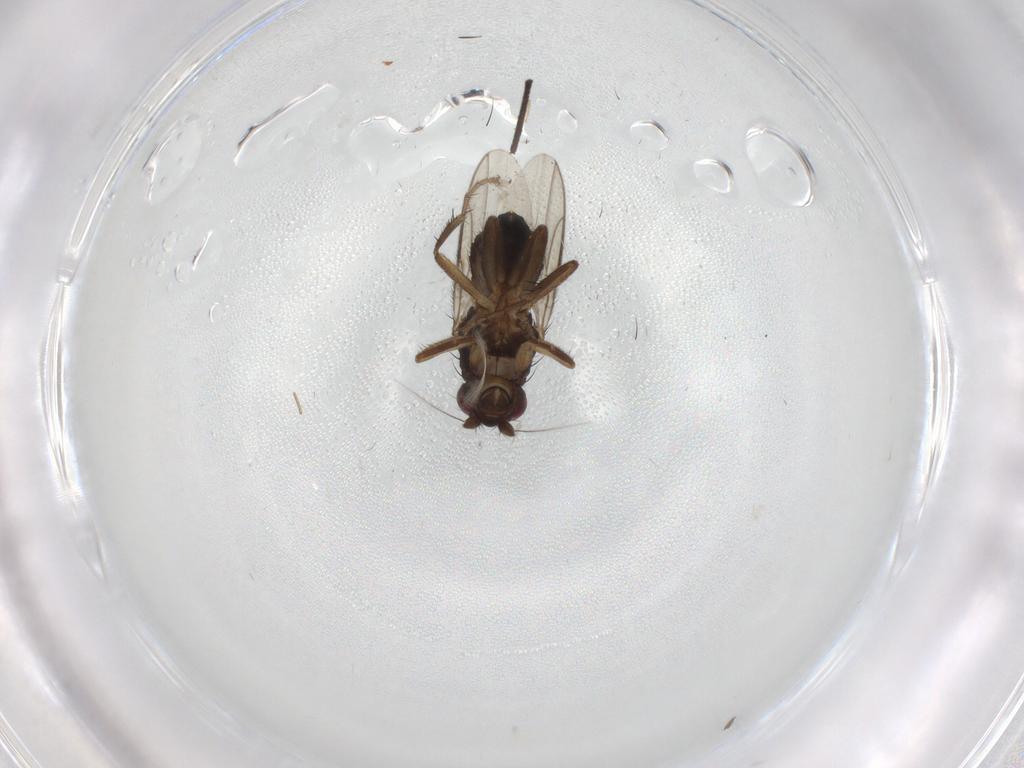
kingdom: Animalia
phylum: Arthropoda
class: Insecta
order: Diptera
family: Sphaeroceridae
